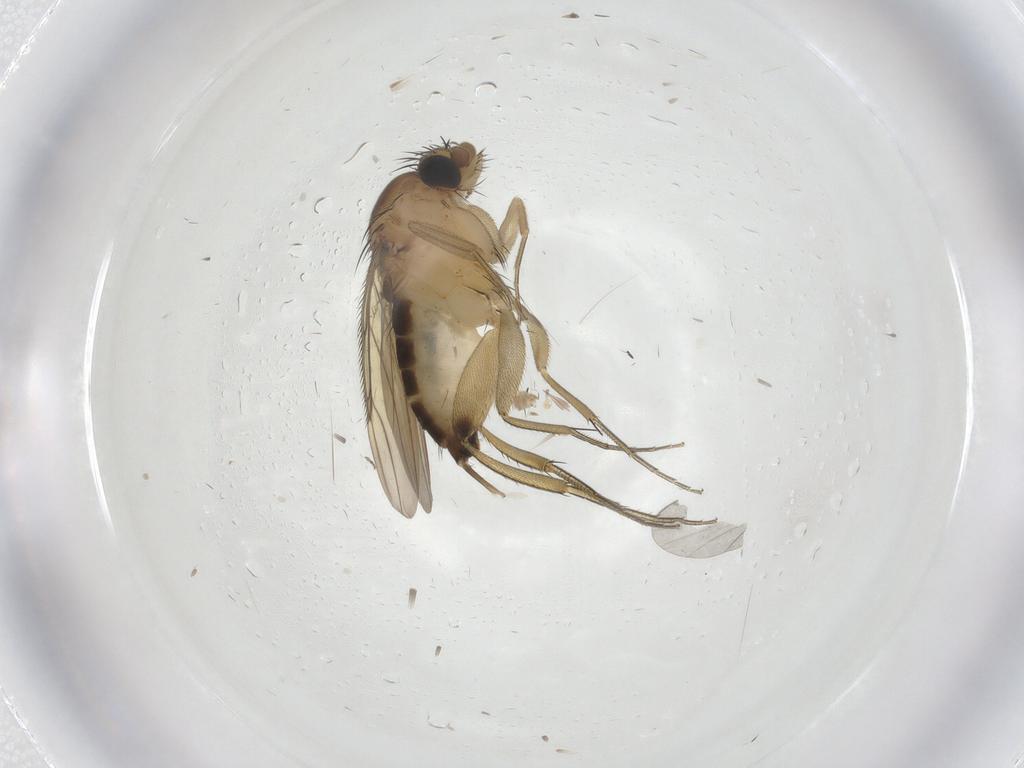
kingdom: Animalia
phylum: Arthropoda
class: Insecta
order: Diptera
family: Phoridae
